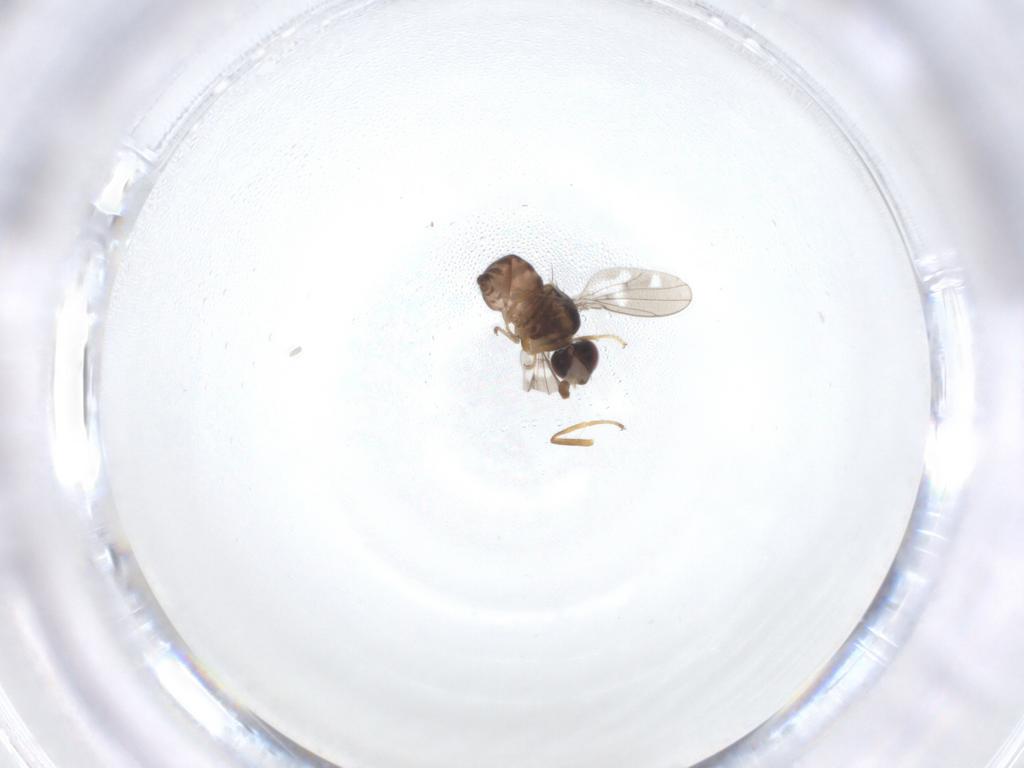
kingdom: Animalia
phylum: Arthropoda
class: Insecta
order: Diptera
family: Ephydridae
